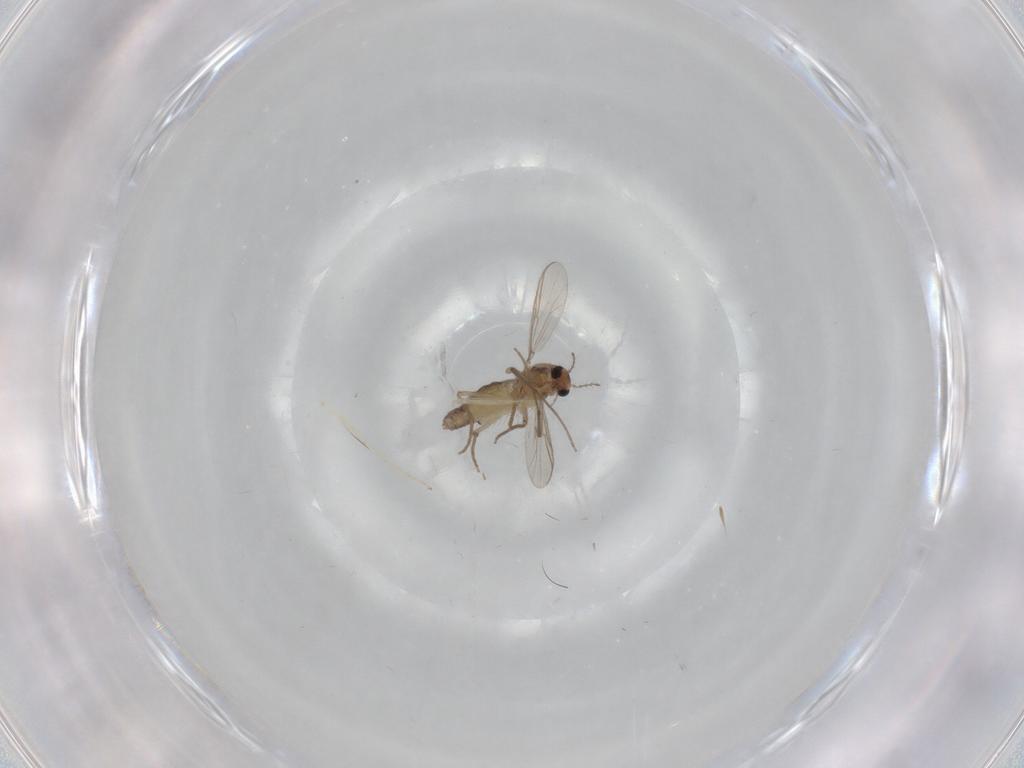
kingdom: Animalia
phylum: Arthropoda
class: Insecta
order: Diptera
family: Chironomidae
